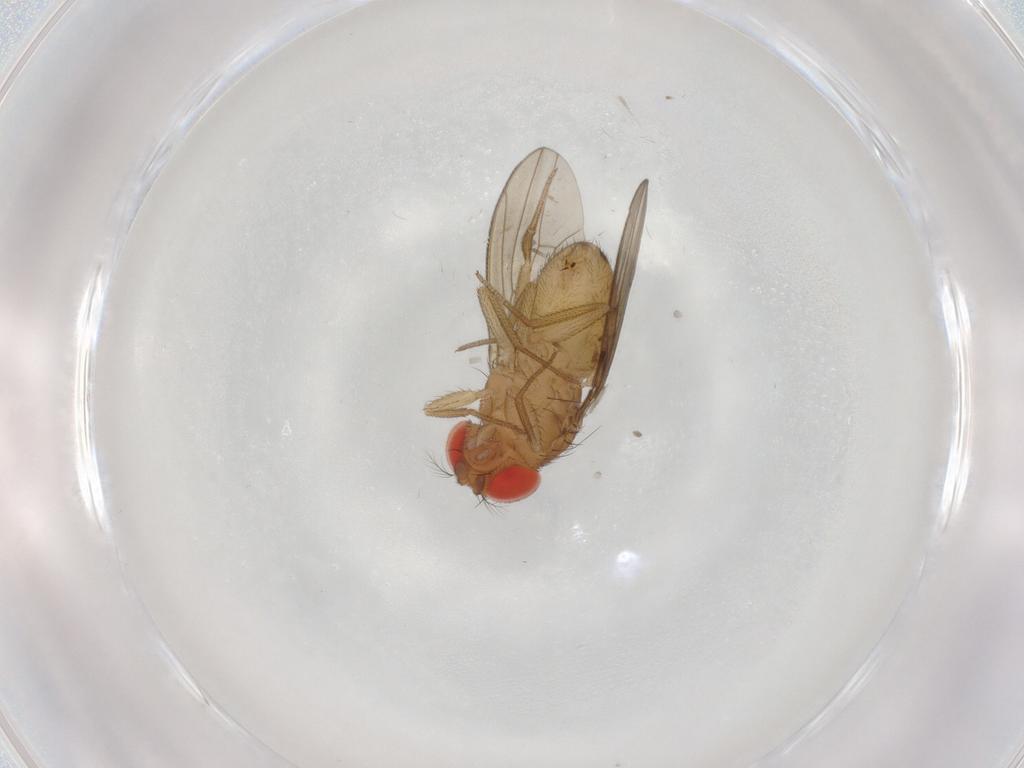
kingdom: Animalia
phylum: Arthropoda
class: Insecta
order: Diptera
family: Drosophilidae
